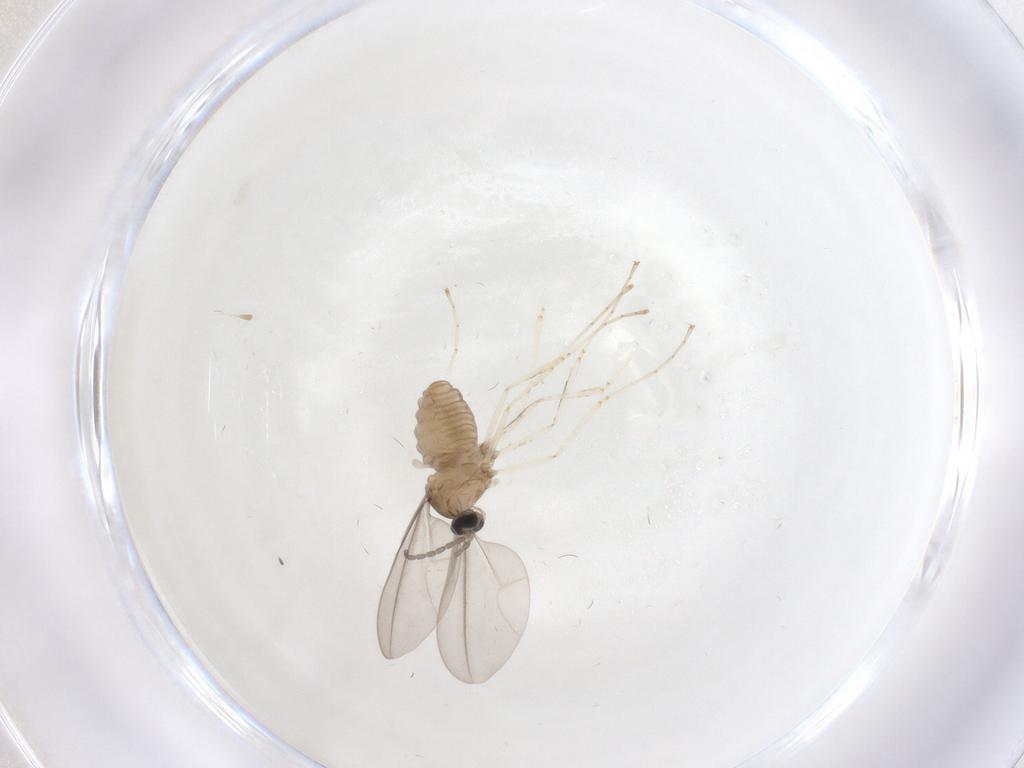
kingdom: Animalia
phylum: Arthropoda
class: Insecta
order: Diptera
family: Cecidomyiidae
